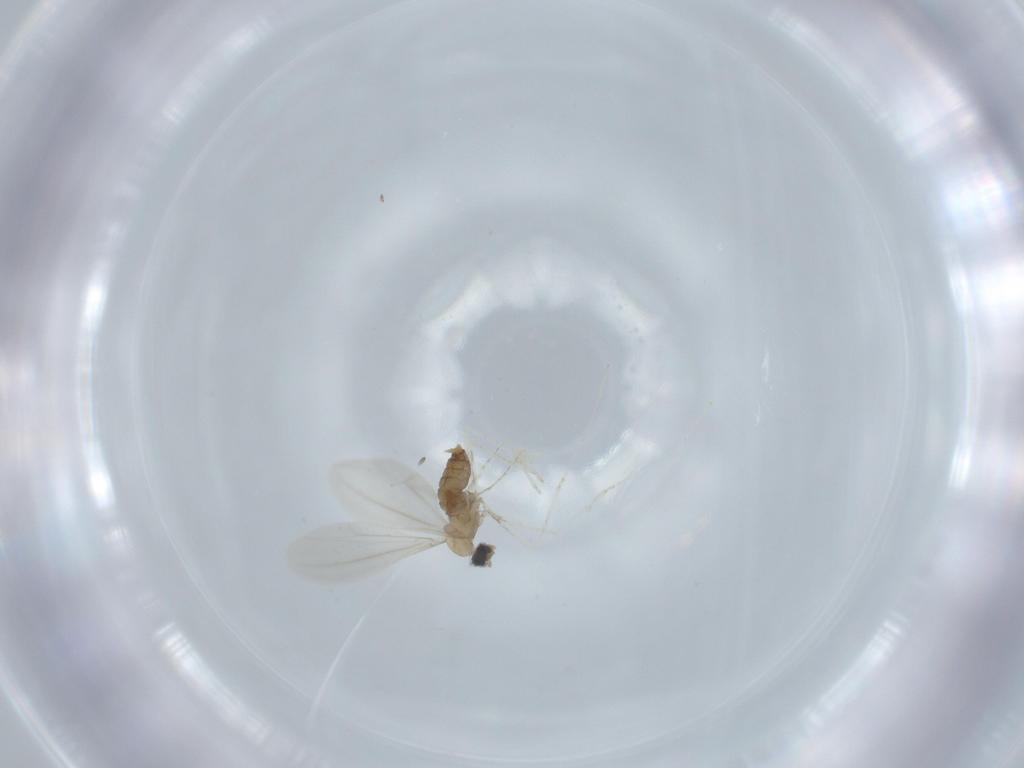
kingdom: Animalia
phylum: Arthropoda
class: Insecta
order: Diptera
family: Cecidomyiidae
